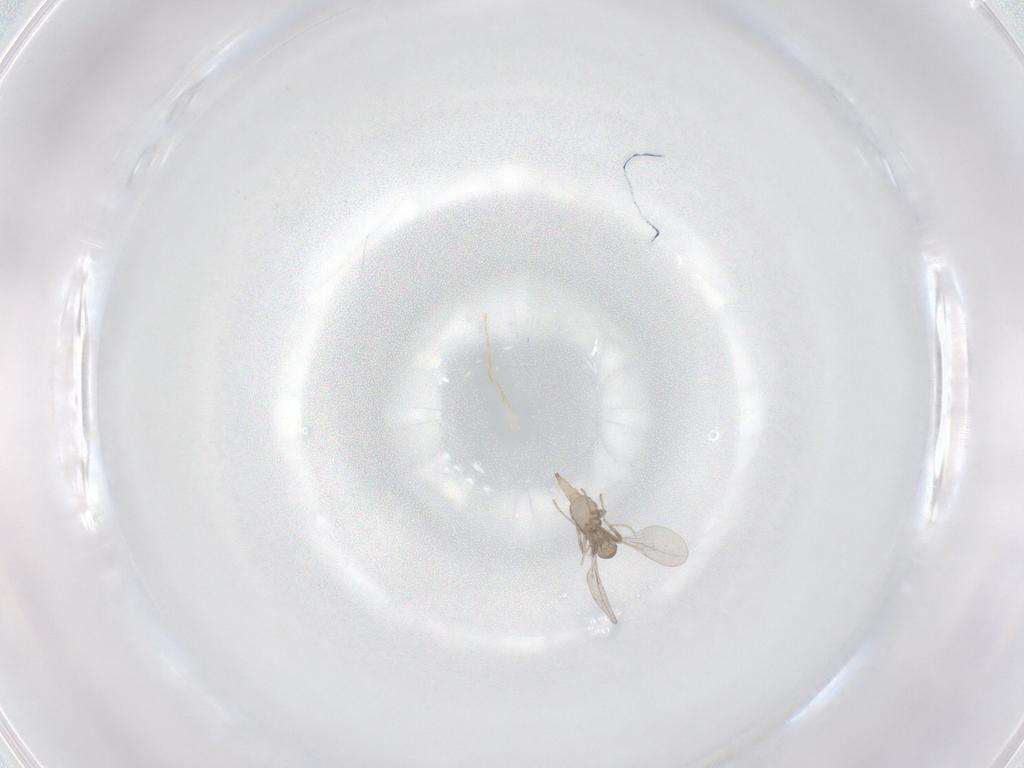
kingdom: Animalia
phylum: Arthropoda
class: Insecta
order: Diptera
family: Cecidomyiidae
